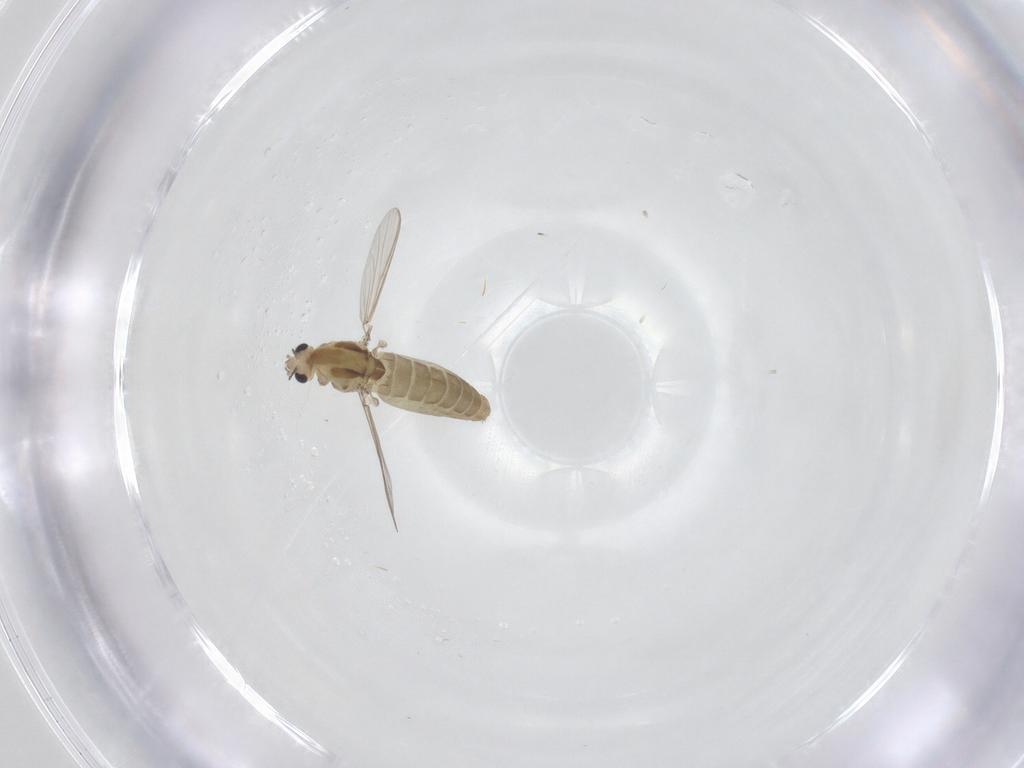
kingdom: Animalia
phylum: Arthropoda
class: Insecta
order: Diptera
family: Chironomidae
